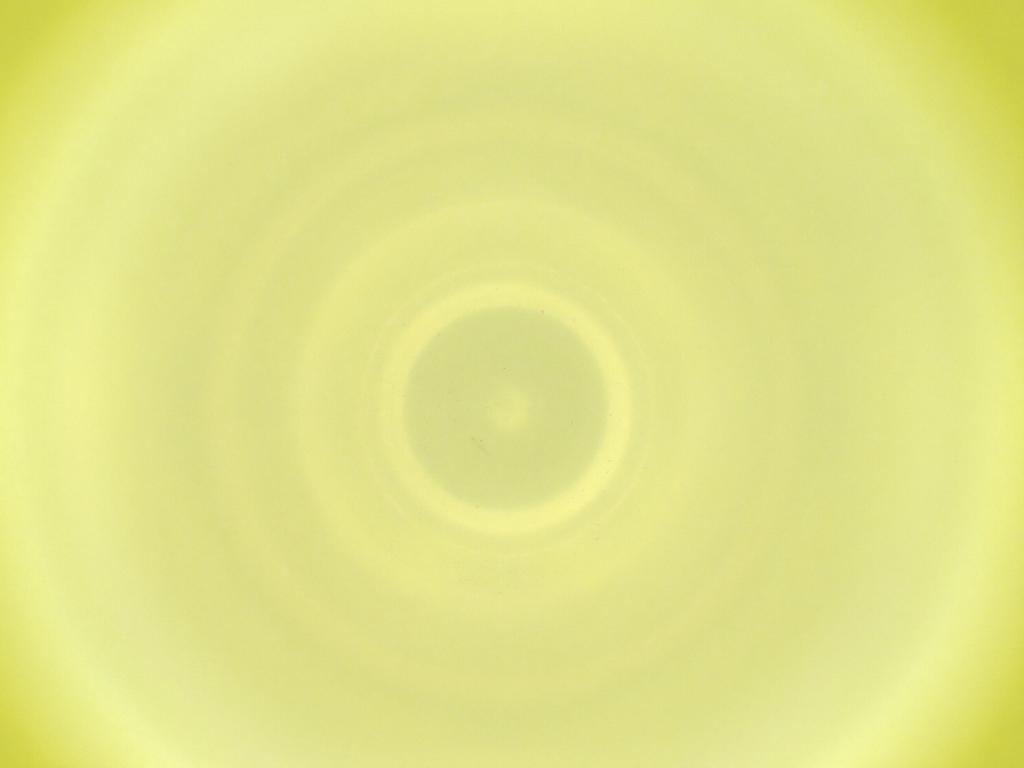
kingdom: Animalia
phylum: Arthropoda
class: Insecta
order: Diptera
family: Cecidomyiidae
